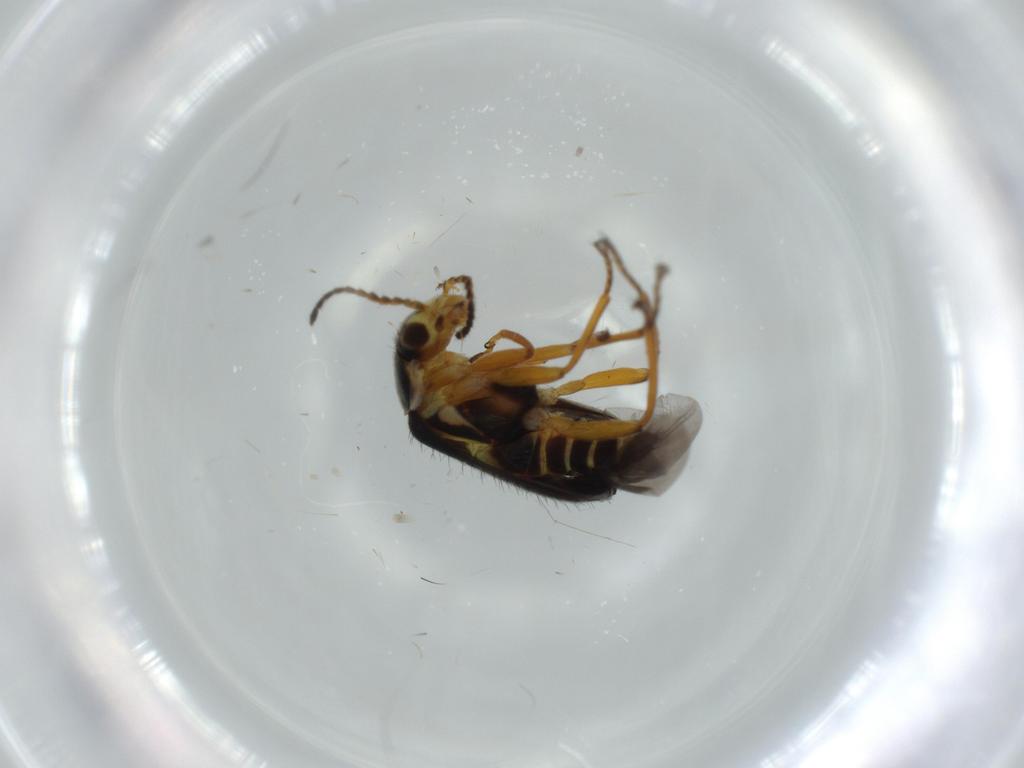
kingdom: Animalia
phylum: Arthropoda
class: Insecta
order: Coleoptera
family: Melyridae
